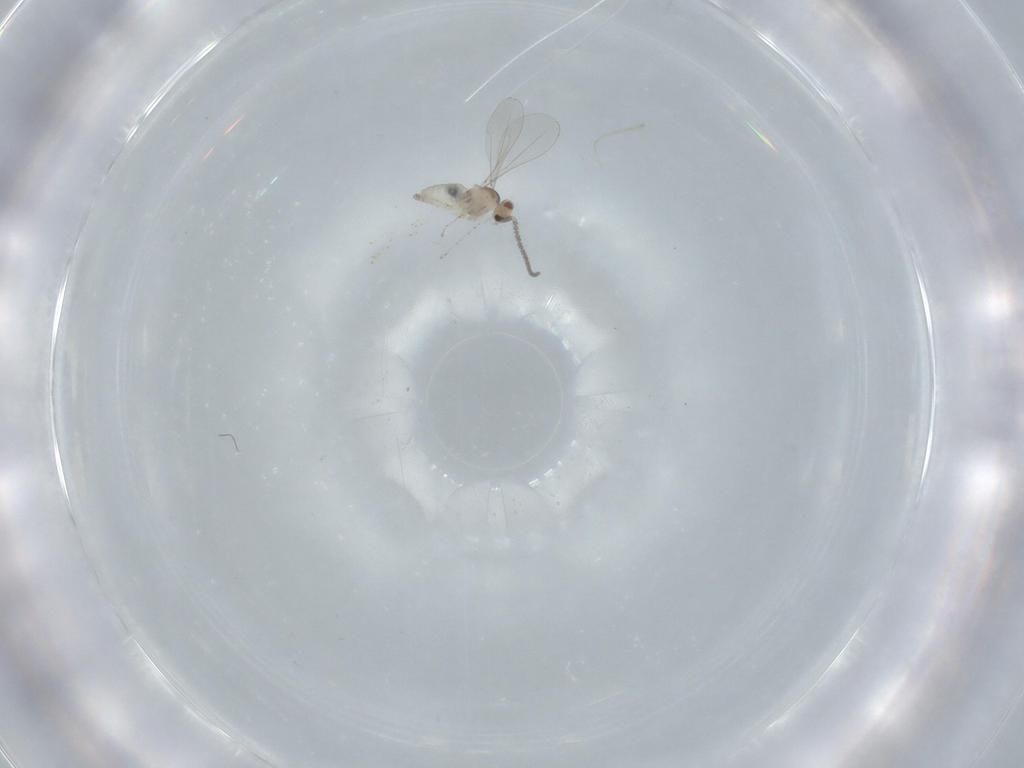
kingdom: Animalia
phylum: Arthropoda
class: Insecta
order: Diptera
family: Cecidomyiidae
